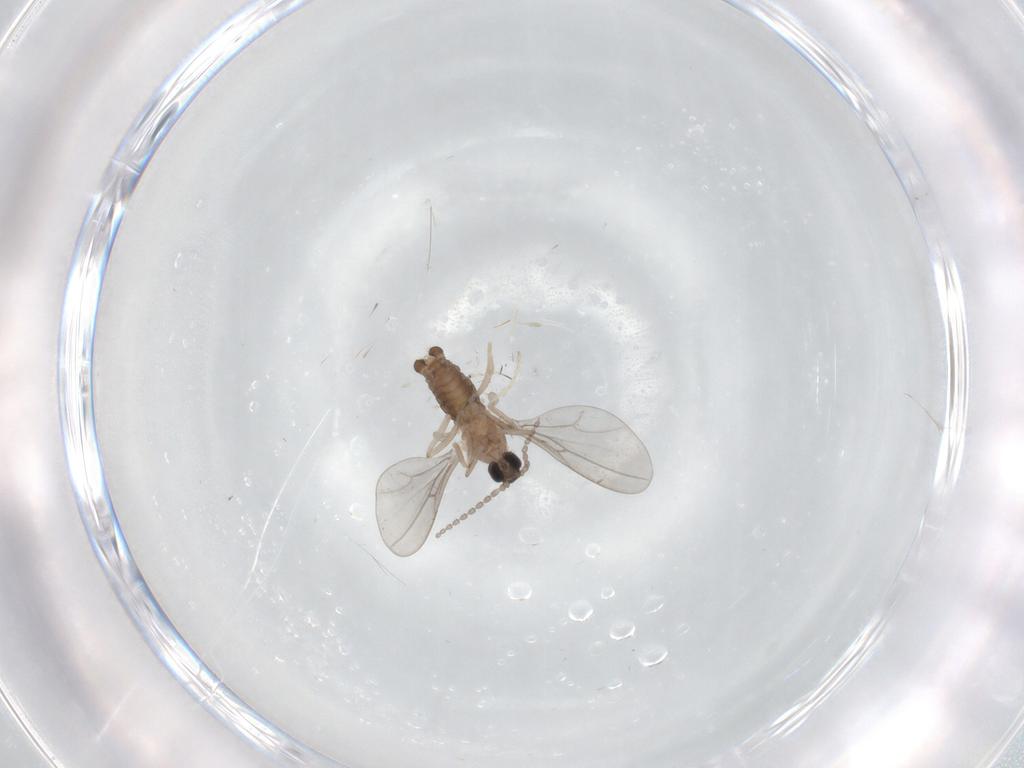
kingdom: Animalia
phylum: Arthropoda
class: Insecta
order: Diptera
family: Cecidomyiidae
